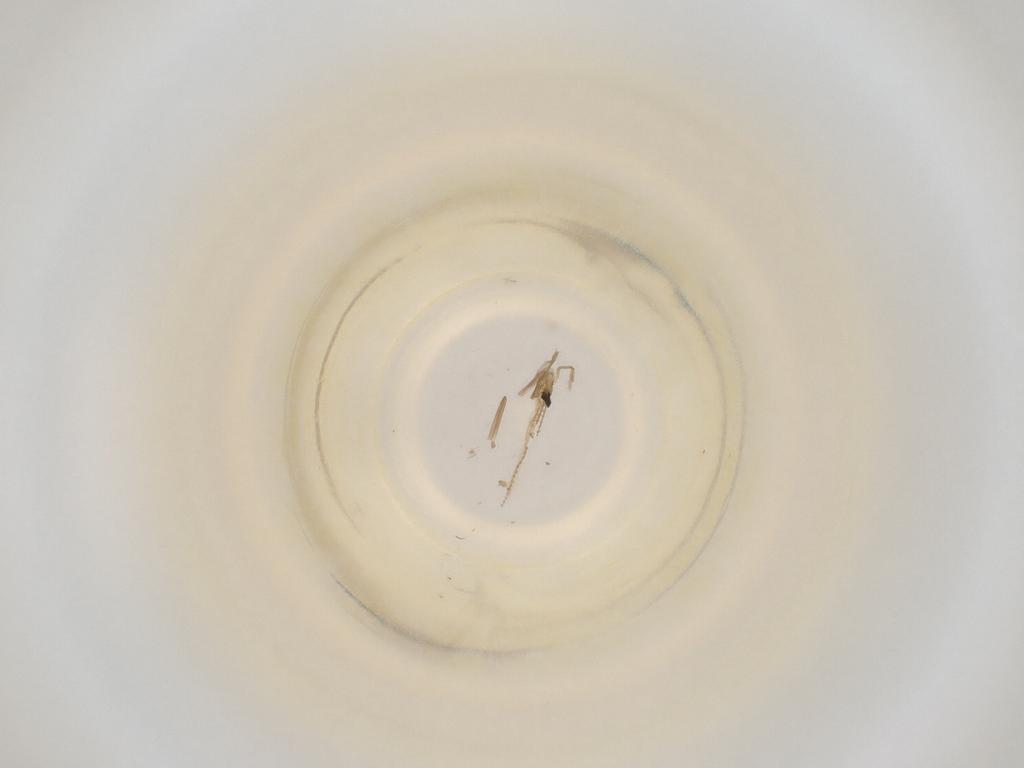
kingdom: Animalia
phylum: Arthropoda
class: Insecta
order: Diptera
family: Cecidomyiidae
